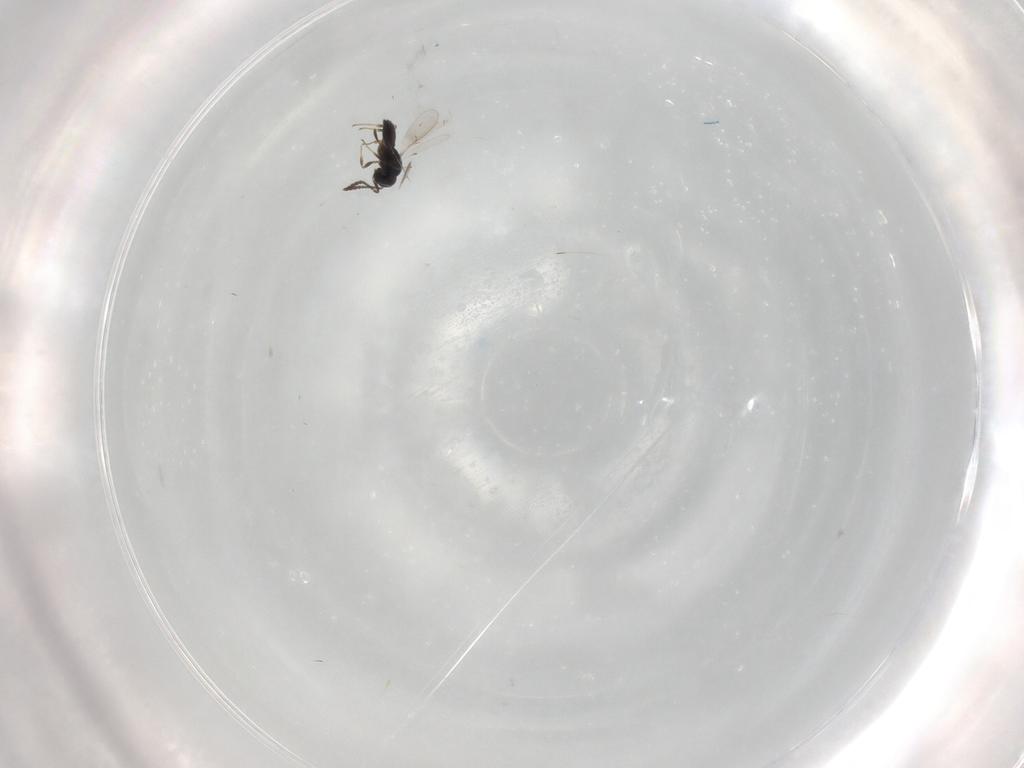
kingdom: Animalia
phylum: Arthropoda
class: Insecta
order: Hymenoptera
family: Scelionidae
